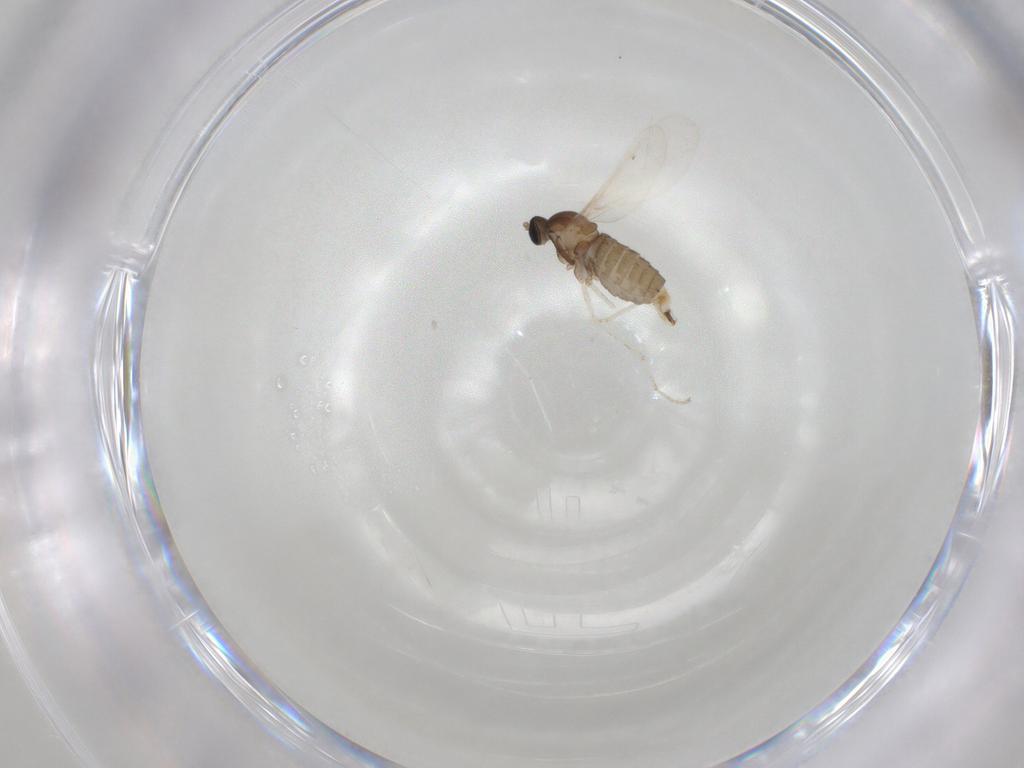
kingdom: Animalia
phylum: Arthropoda
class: Insecta
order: Diptera
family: Cecidomyiidae
